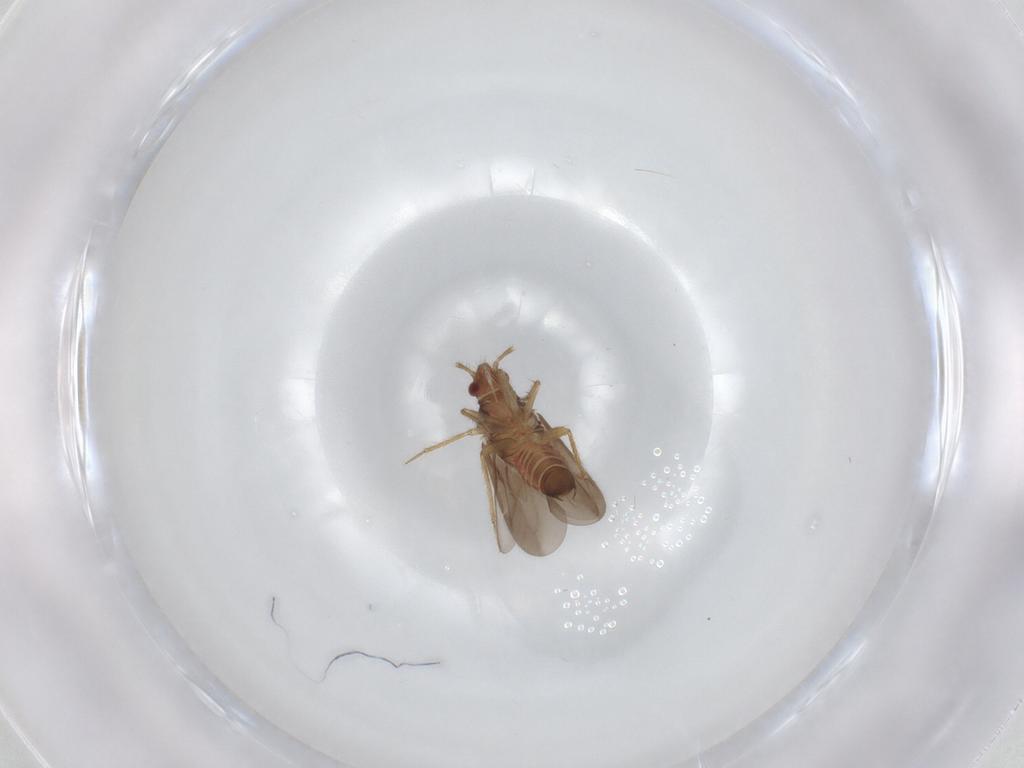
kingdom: Animalia
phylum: Arthropoda
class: Insecta
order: Hemiptera
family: Ceratocombidae
